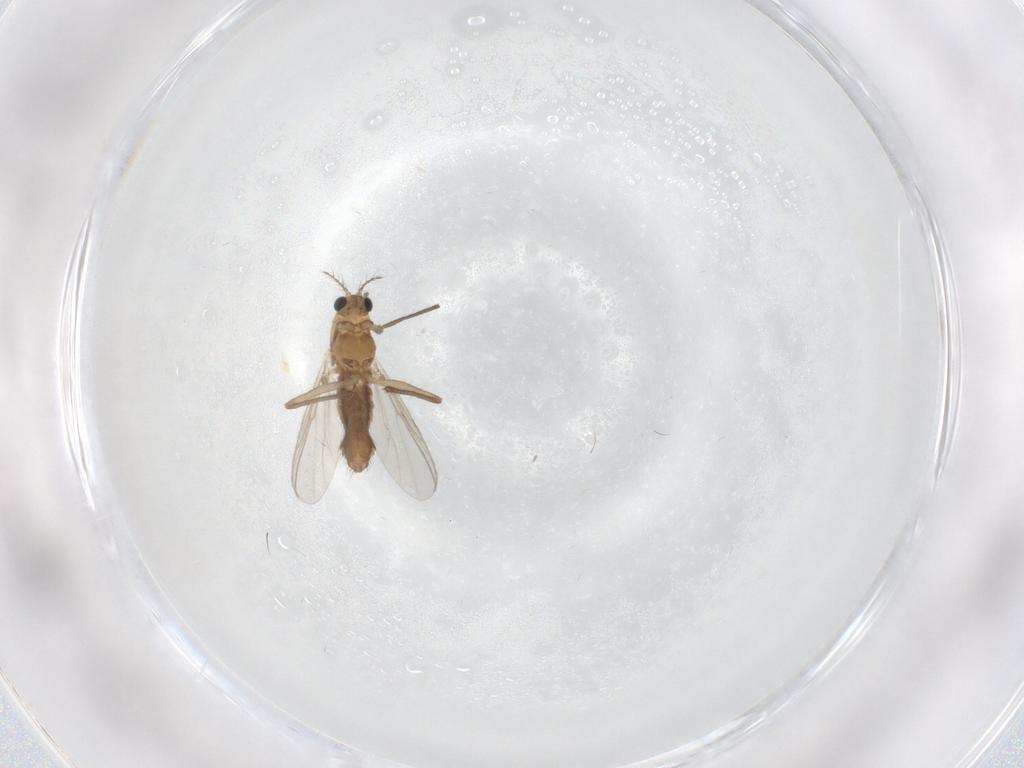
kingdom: Animalia
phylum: Arthropoda
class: Insecta
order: Diptera
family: Chironomidae
